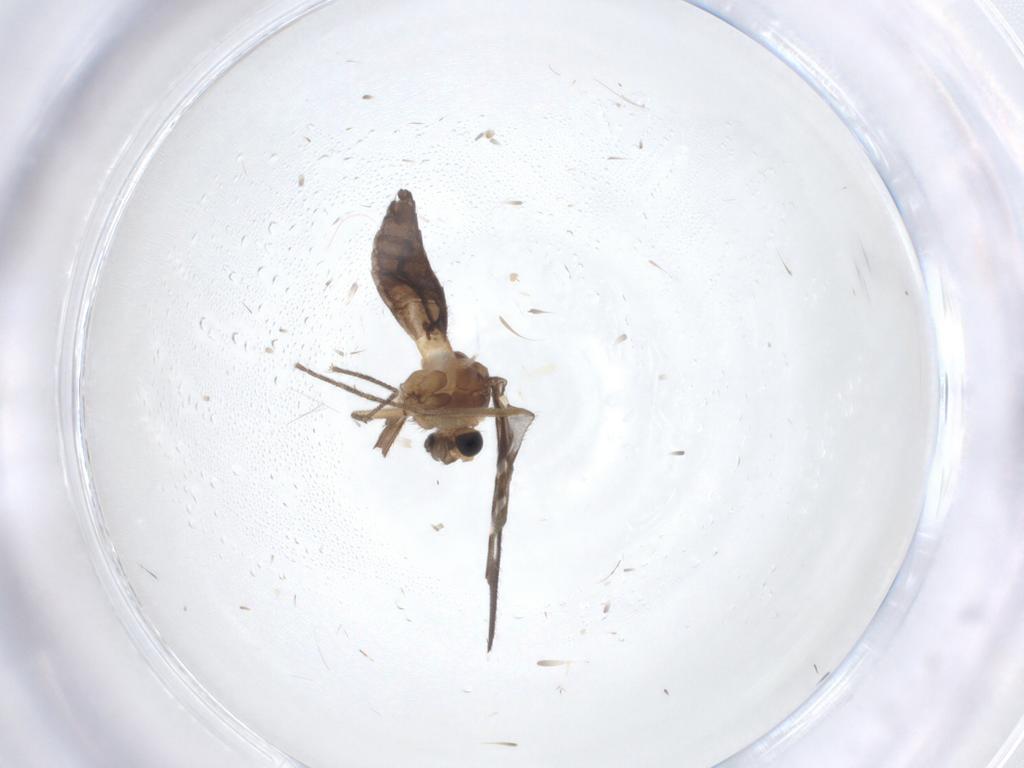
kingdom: Animalia
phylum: Arthropoda
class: Insecta
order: Diptera
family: Keroplatidae
